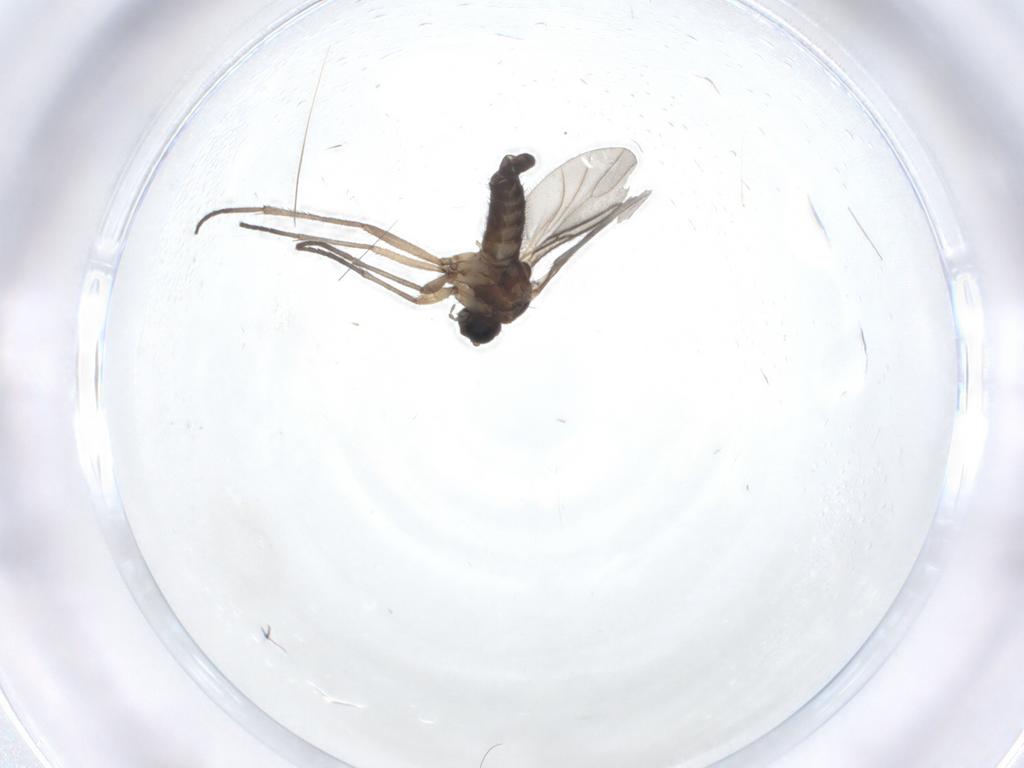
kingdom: Animalia
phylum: Arthropoda
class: Insecta
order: Diptera
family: Sciaridae
